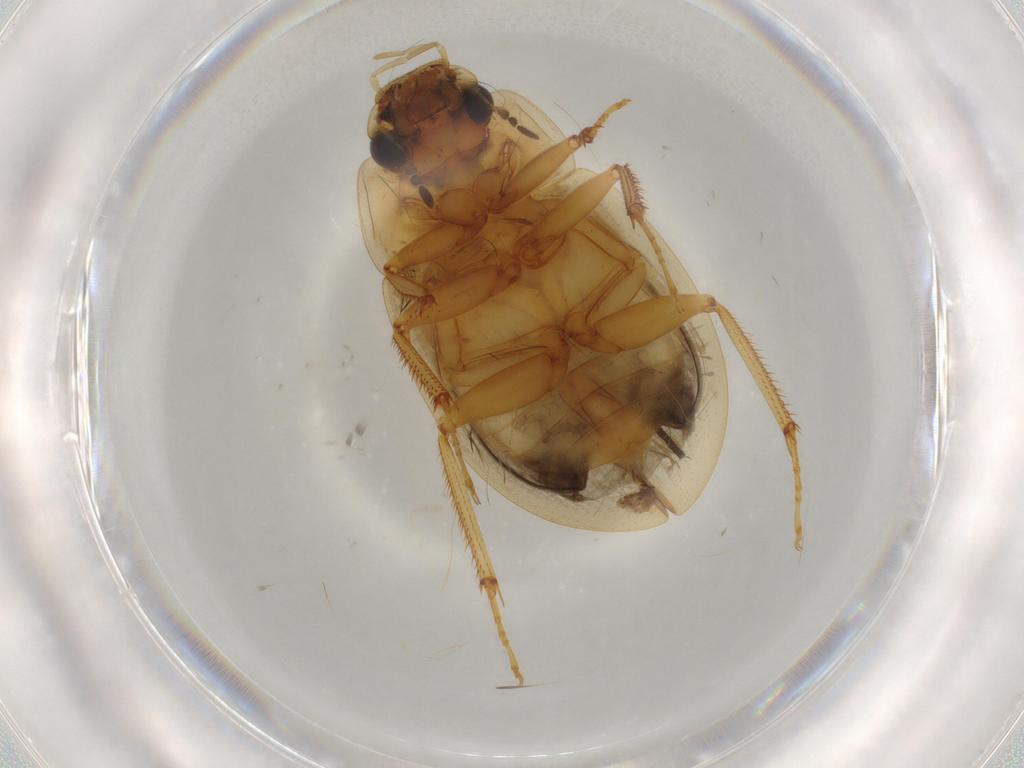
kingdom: Animalia
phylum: Arthropoda
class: Insecta
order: Coleoptera
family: Hydrophilidae
